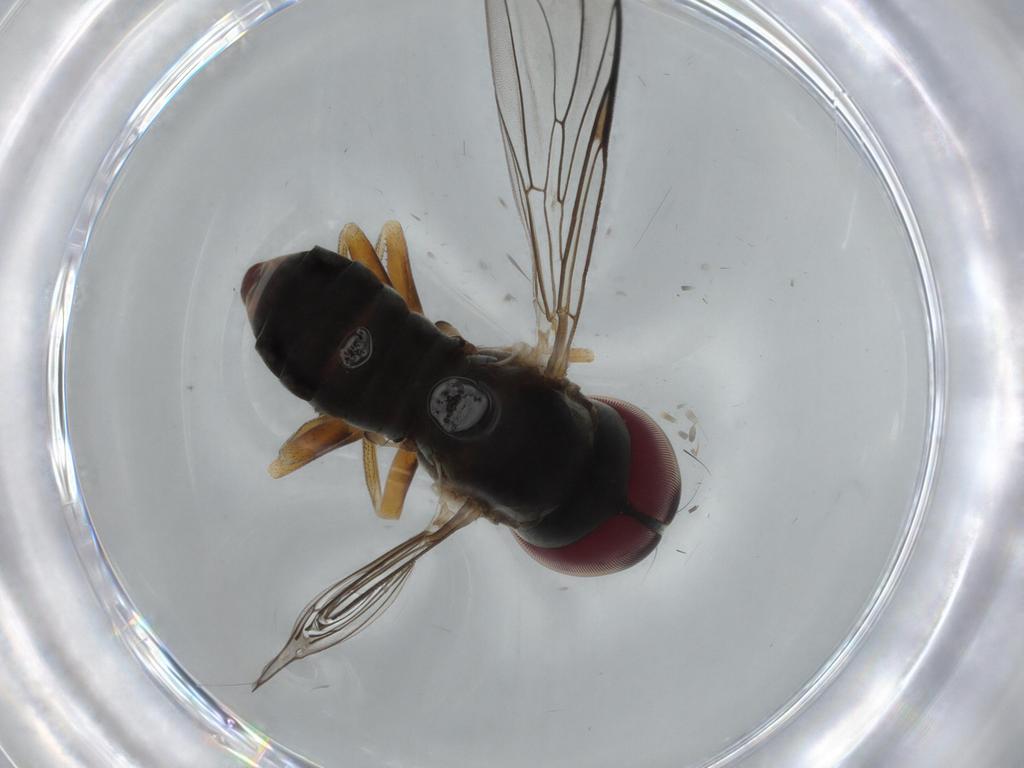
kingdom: Animalia
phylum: Arthropoda
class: Insecta
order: Diptera
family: Pipunculidae
